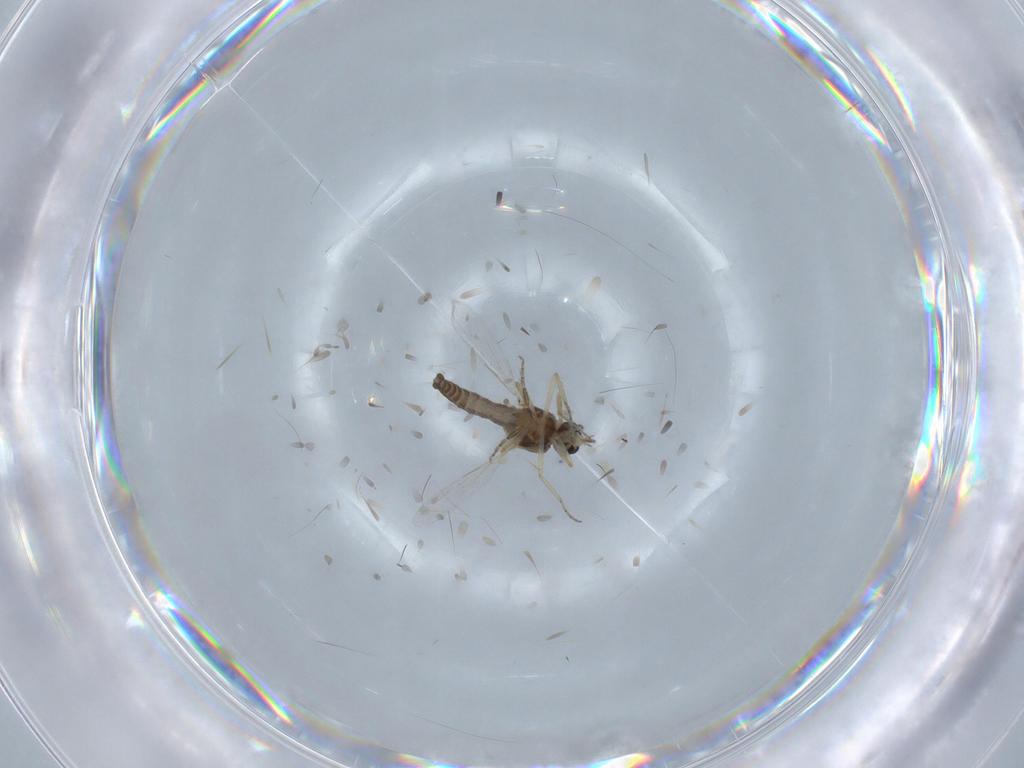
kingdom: Animalia
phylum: Arthropoda
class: Insecta
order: Diptera
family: Ceratopogonidae
